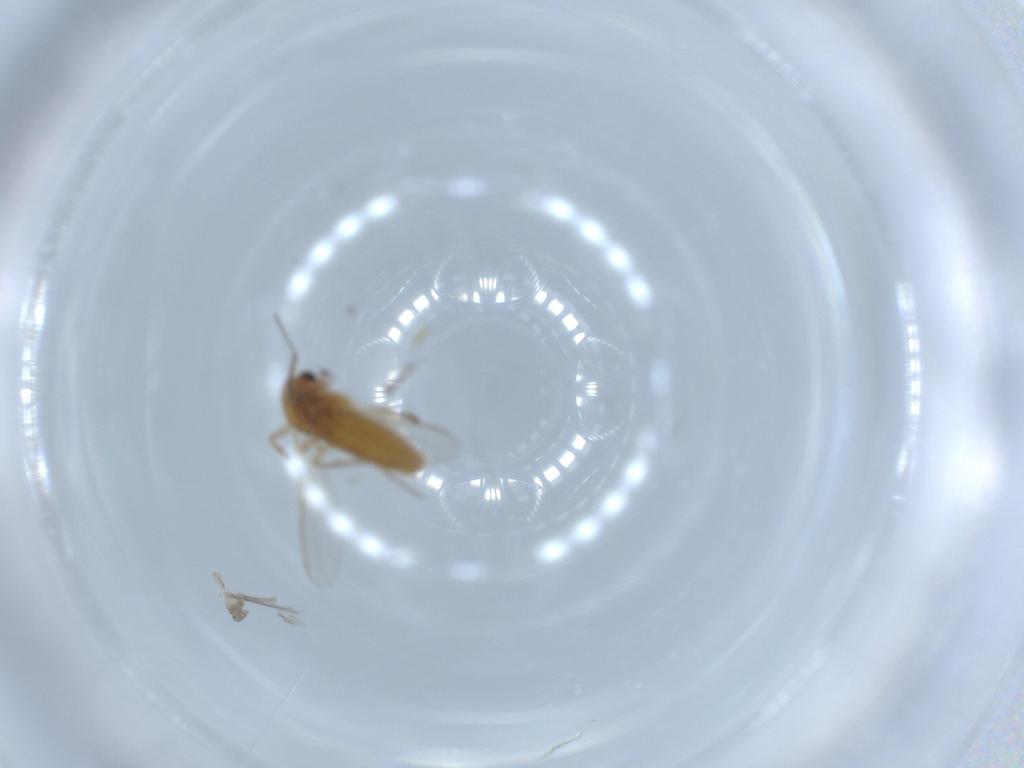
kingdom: Animalia
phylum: Arthropoda
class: Insecta
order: Diptera
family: Chironomidae
